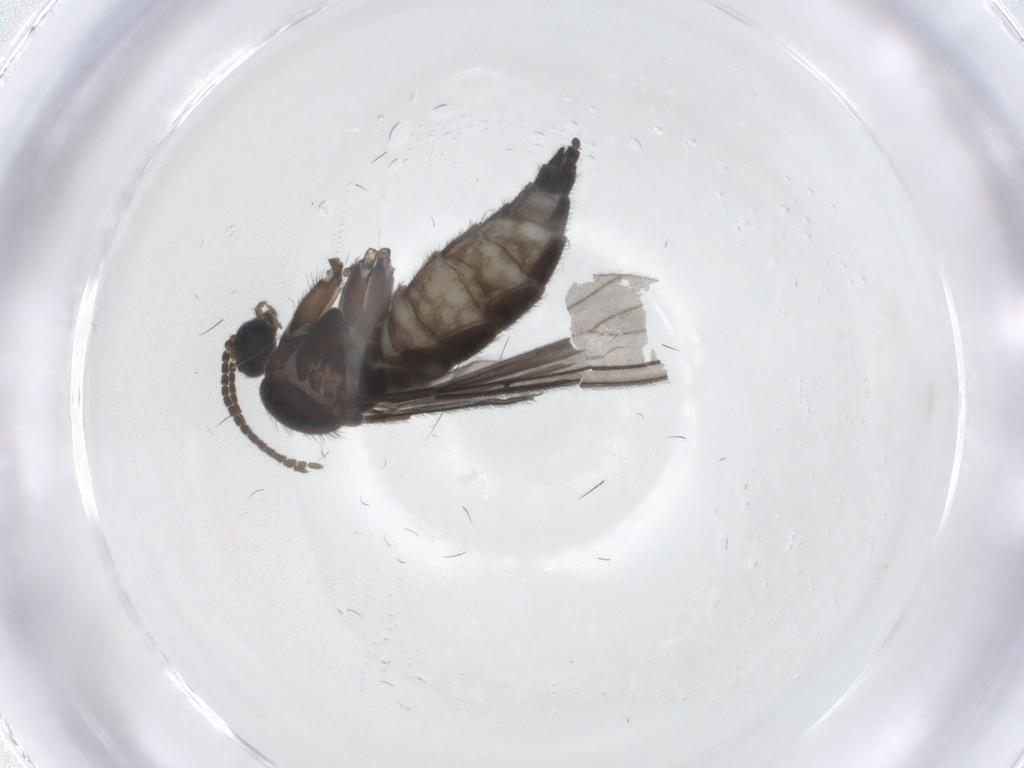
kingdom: Animalia
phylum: Arthropoda
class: Insecta
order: Diptera
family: Sciaridae
